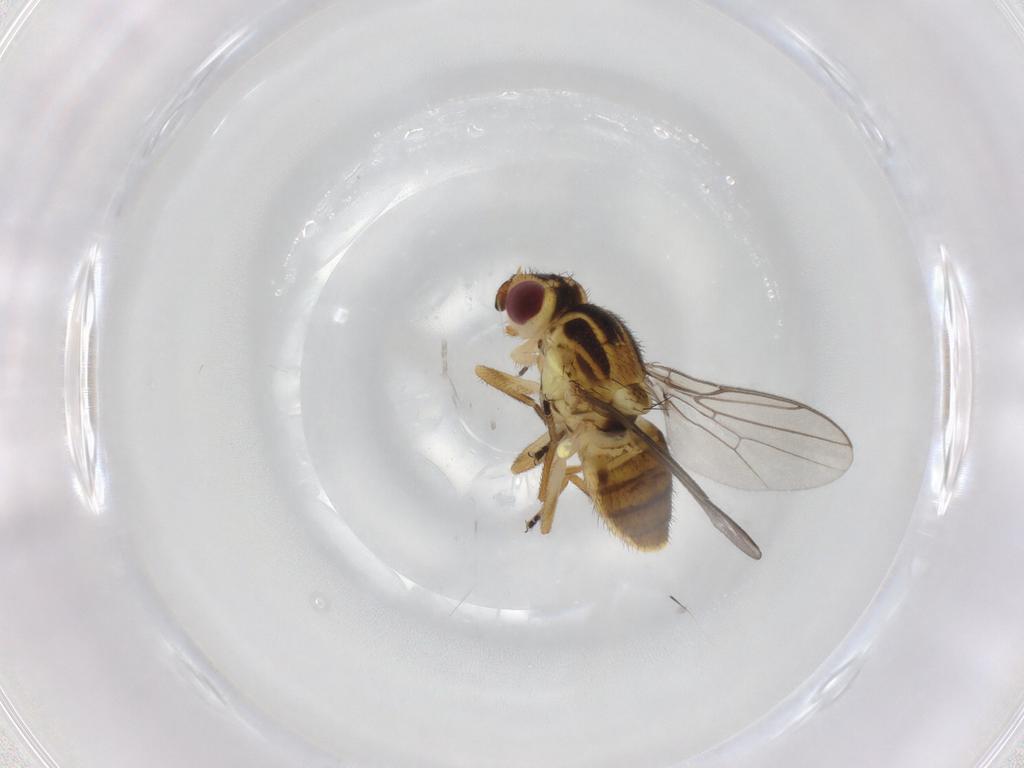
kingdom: Animalia
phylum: Arthropoda
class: Insecta
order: Diptera
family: Chloropidae
